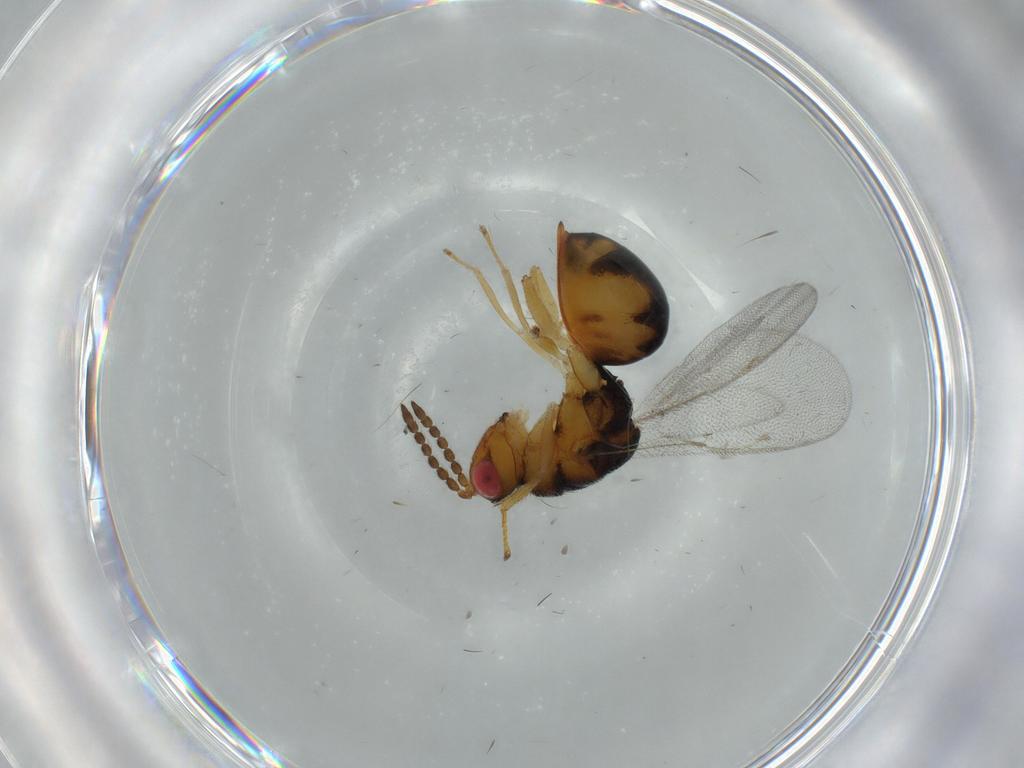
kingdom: Animalia
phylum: Arthropoda
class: Insecta
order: Hymenoptera
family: Eurytomidae
